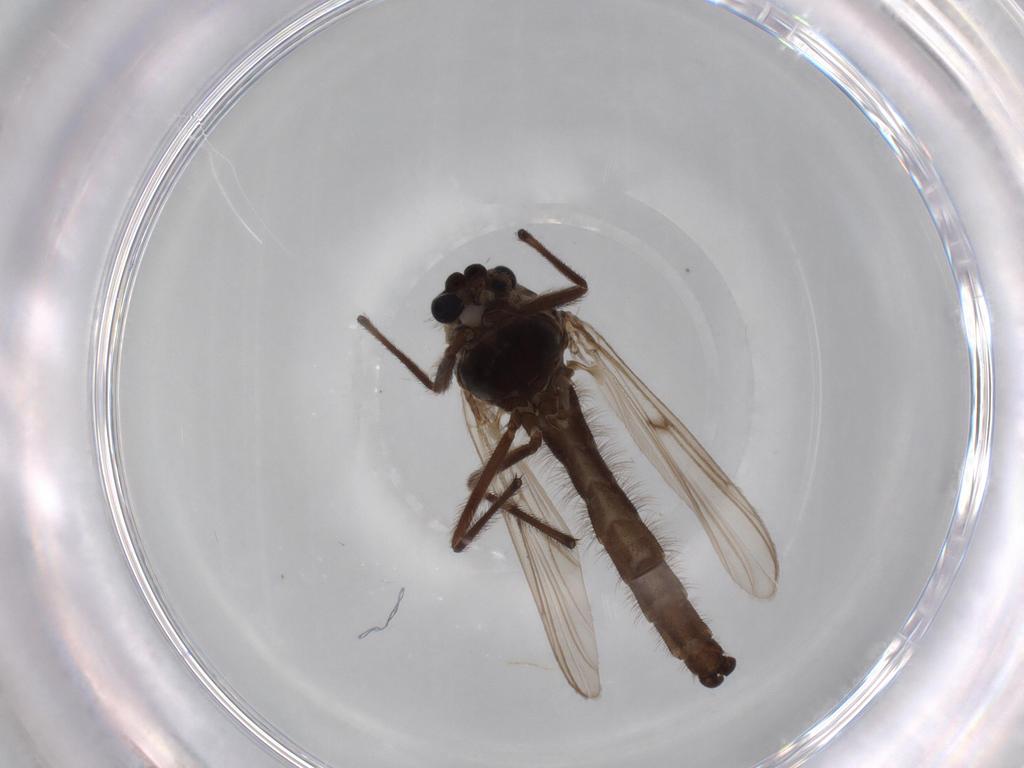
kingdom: Animalia
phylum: Arthropoda
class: Insecta
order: Diptera
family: Chironomidae
